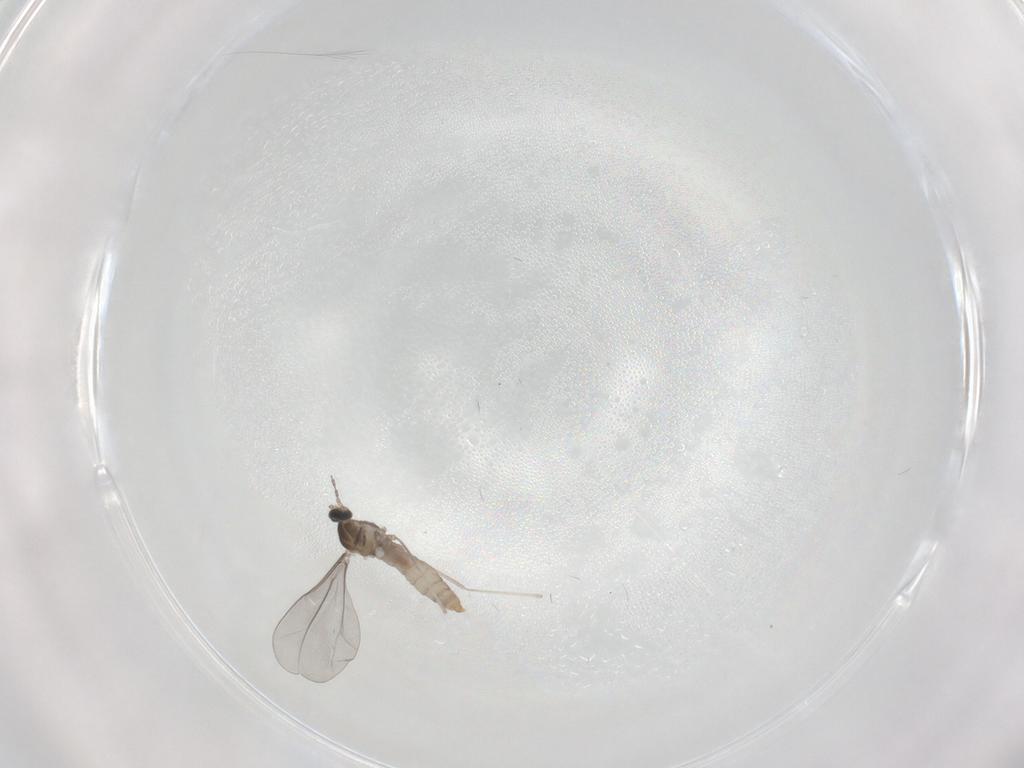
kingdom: Animalia
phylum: Arthropoda
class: Insecta
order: Diptera
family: Cecidomyiidae
